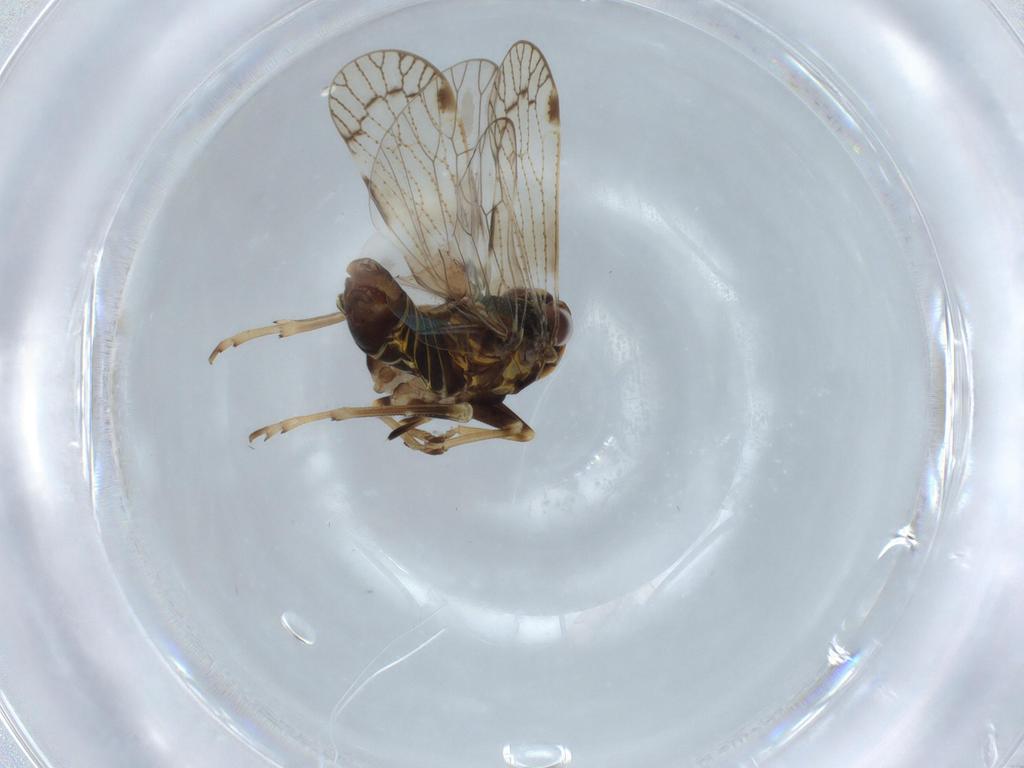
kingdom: Animalia
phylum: Arthropoda
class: Insecta
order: Hemiptera
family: Cixiidae
